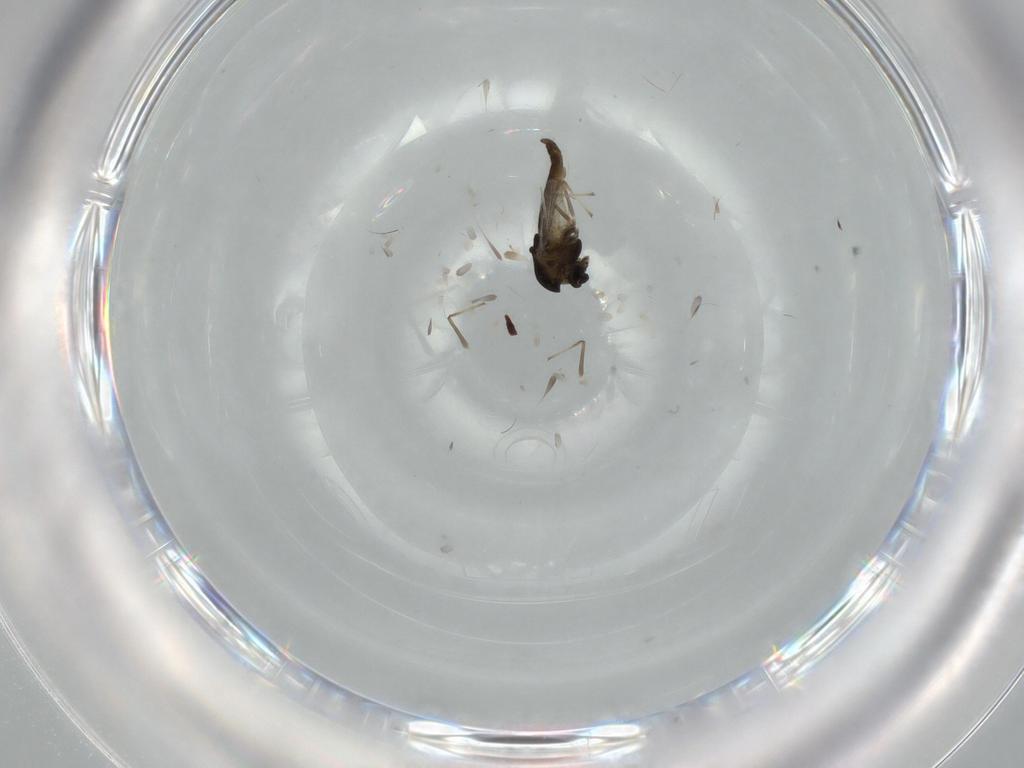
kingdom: Animalia
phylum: Arthropoda
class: Insecta
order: Diptera
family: Chironomidae
